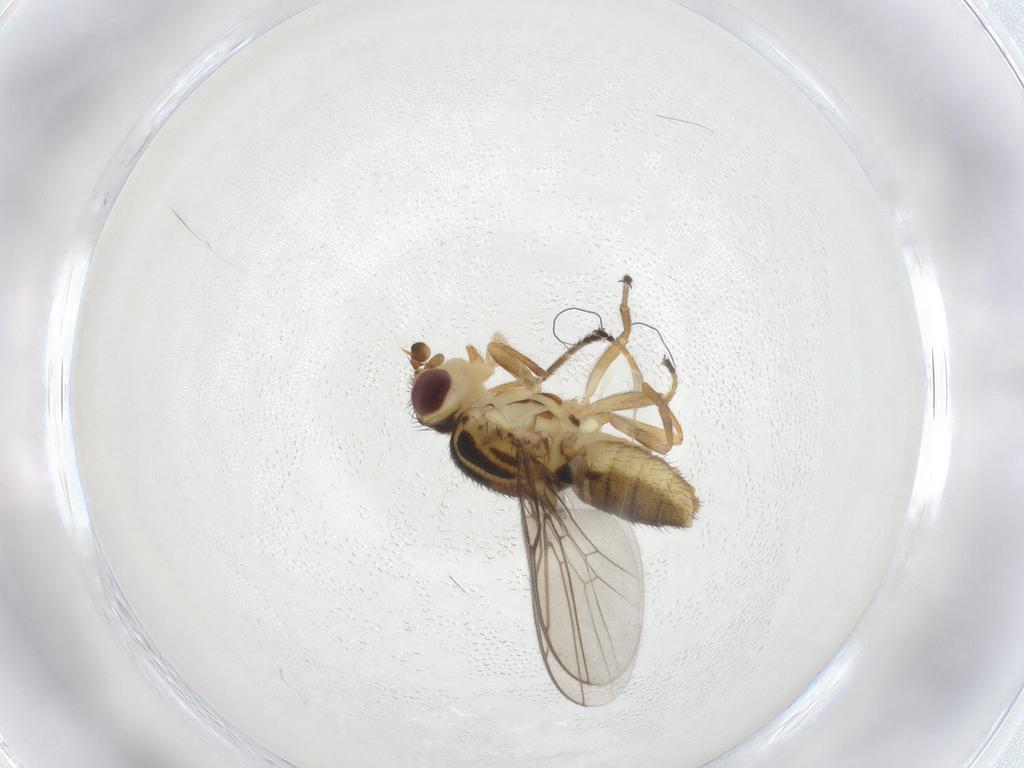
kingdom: Animalia
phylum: Arthropoda
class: Insecta
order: Diptera
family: Chloropidae
